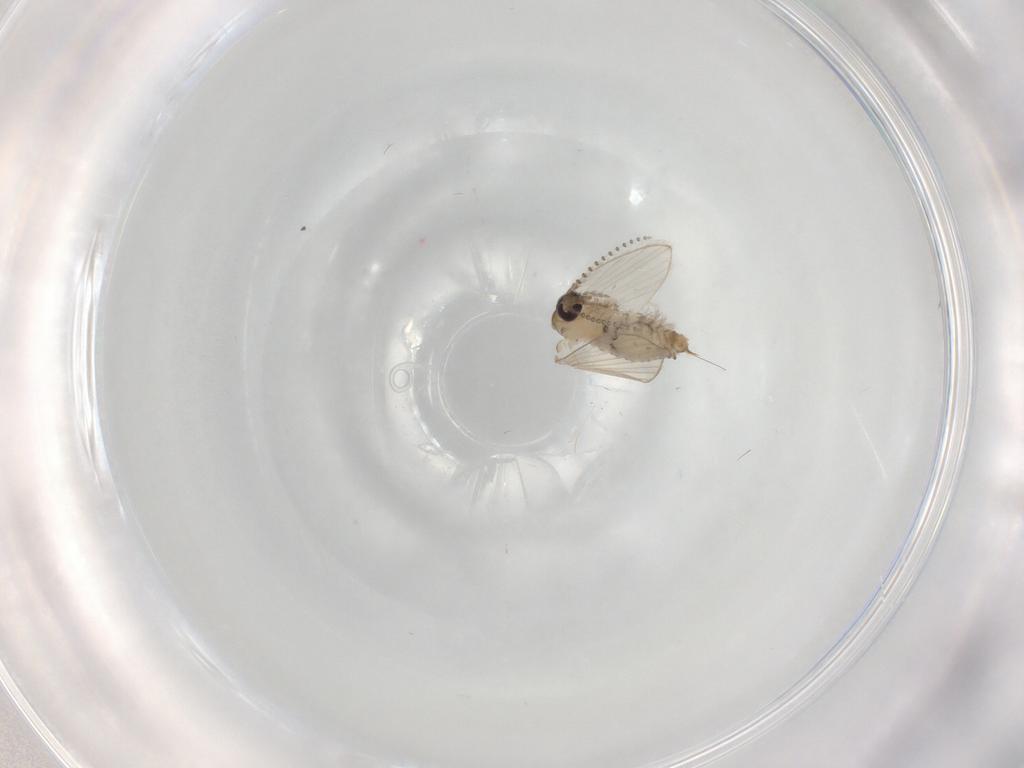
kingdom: Animalia
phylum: Arthropoda
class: Insecta
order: Diptera
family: Psychodidae
